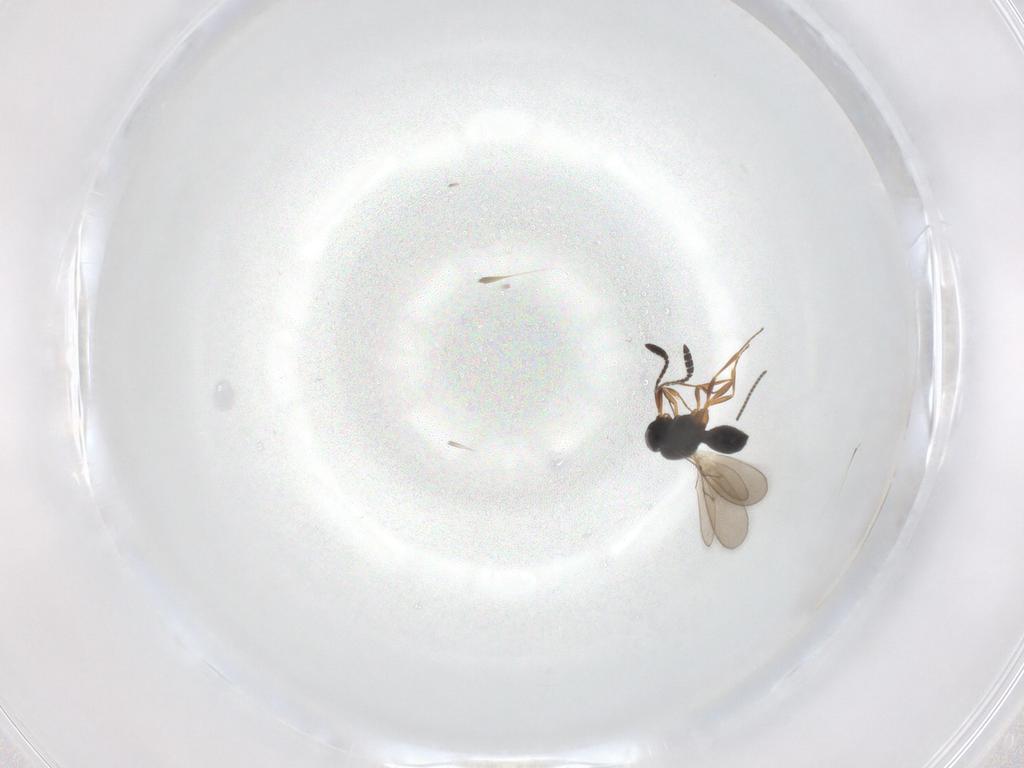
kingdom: Animalia
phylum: Arthropoda
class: Insecta
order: Hymenoptera
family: Scelionidae
